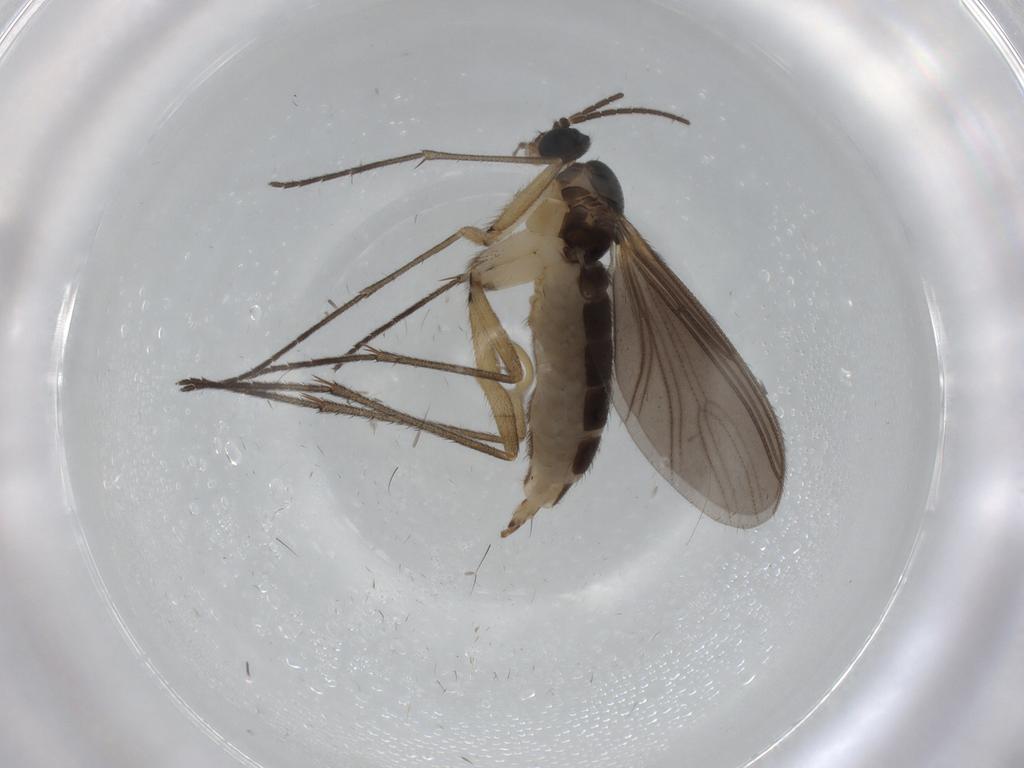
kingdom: Animalia
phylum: Arthropoda
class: Insecta
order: Diptera
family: Sciaridae
